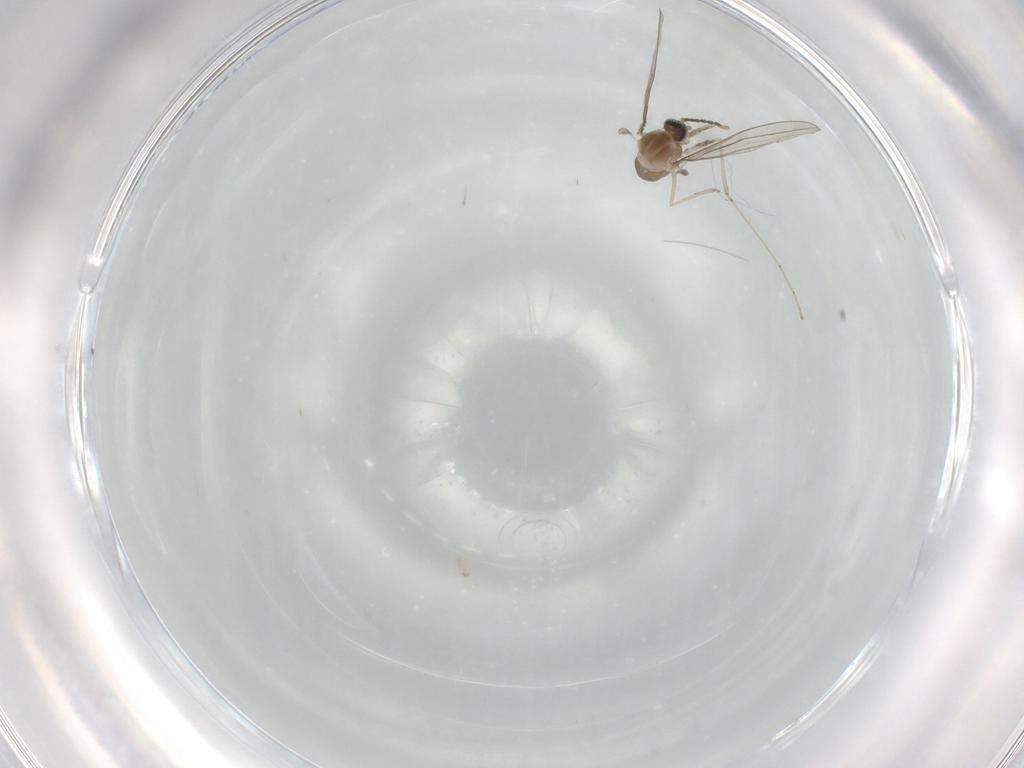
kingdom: Animalia
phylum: Arthropoda
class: Insecta
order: Diptera
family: Cecidomyiidae
